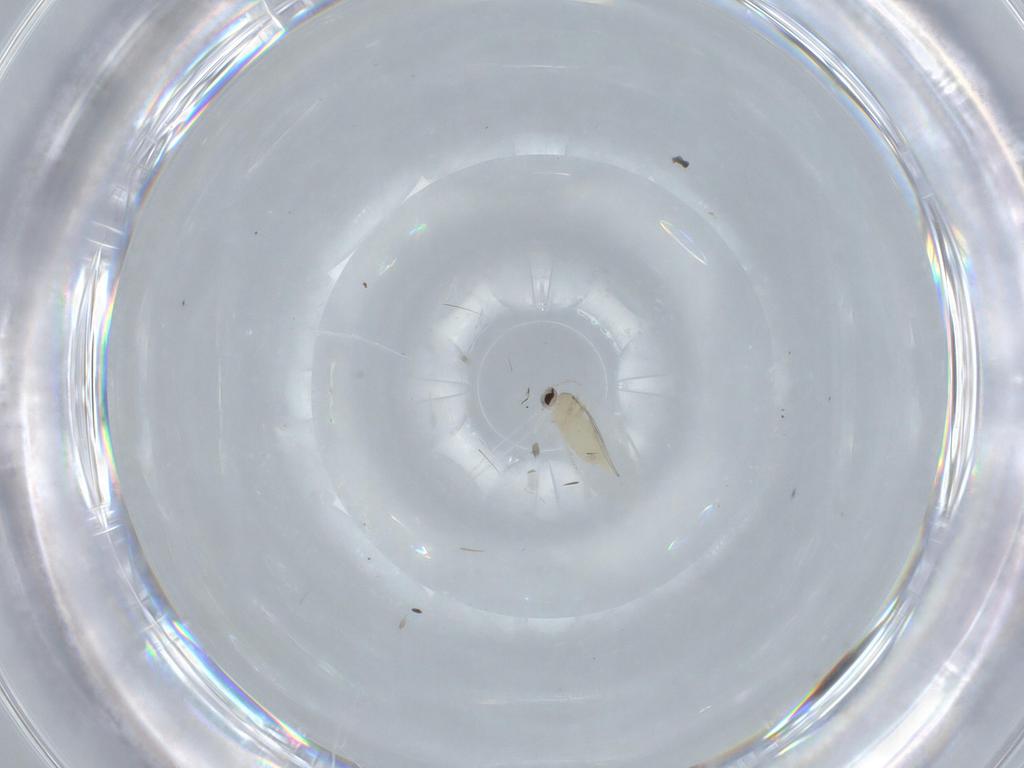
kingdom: Animalia
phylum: Arthropoda
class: Insecta
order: Diptera
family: Cecidomyiidae
